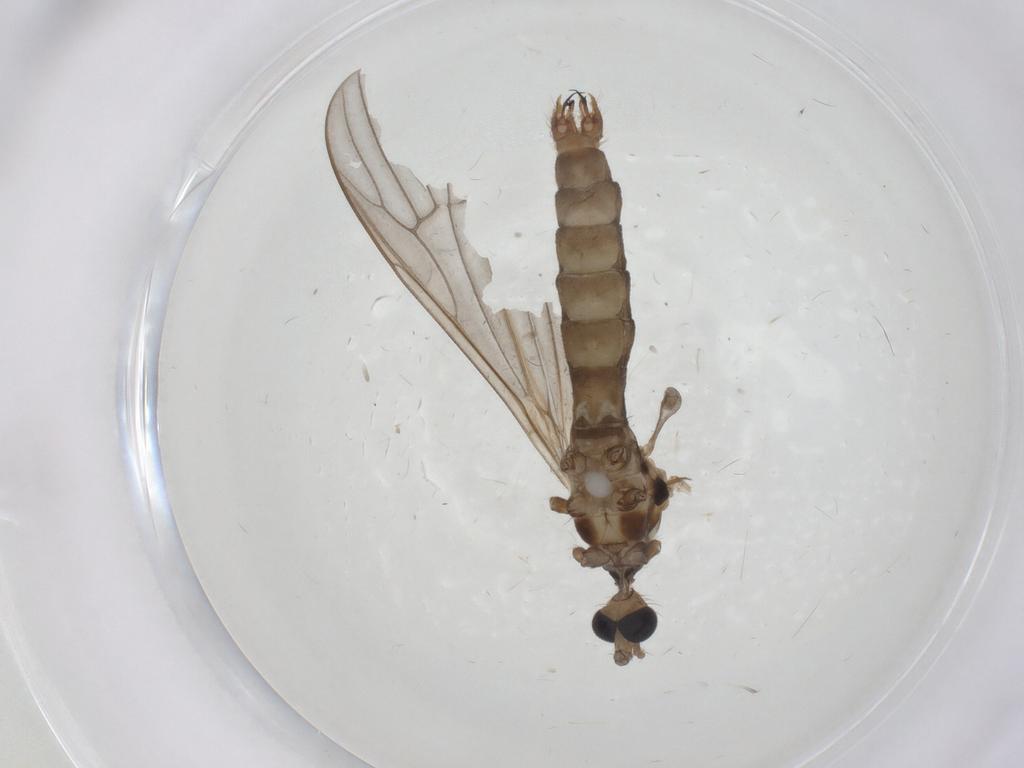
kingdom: Animalia
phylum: Arthropoda
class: Insecta
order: Diptera
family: Limoniidae
